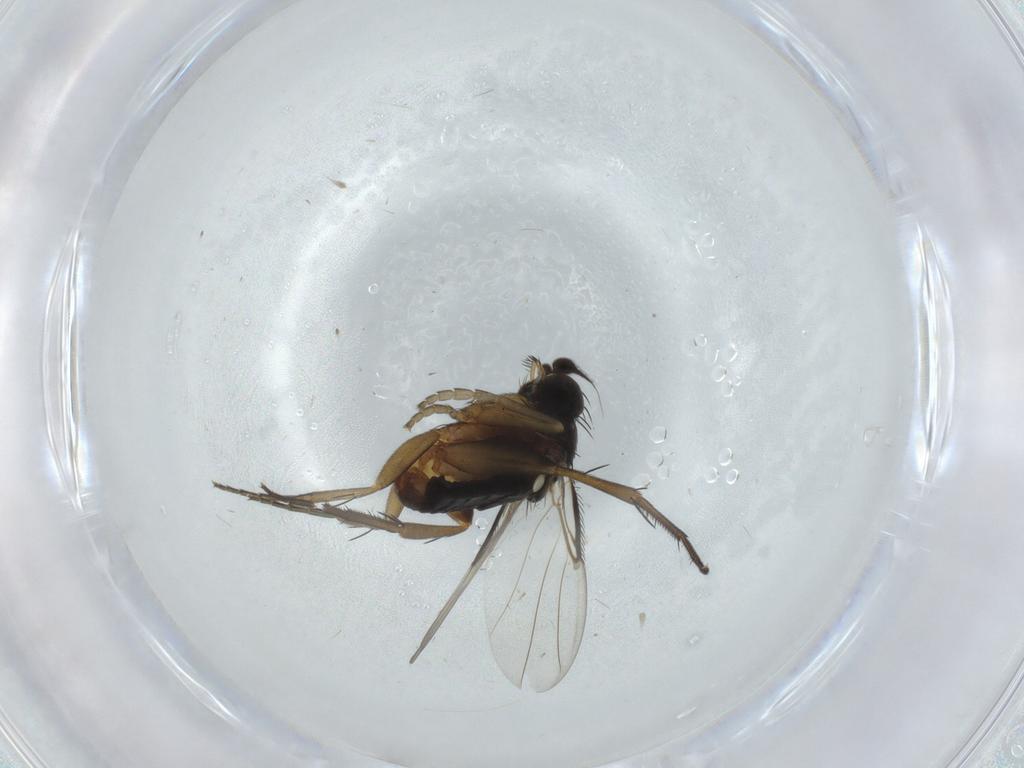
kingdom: Animalia
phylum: Arthropoda
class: Insecta
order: Diptera
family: Phoridae
